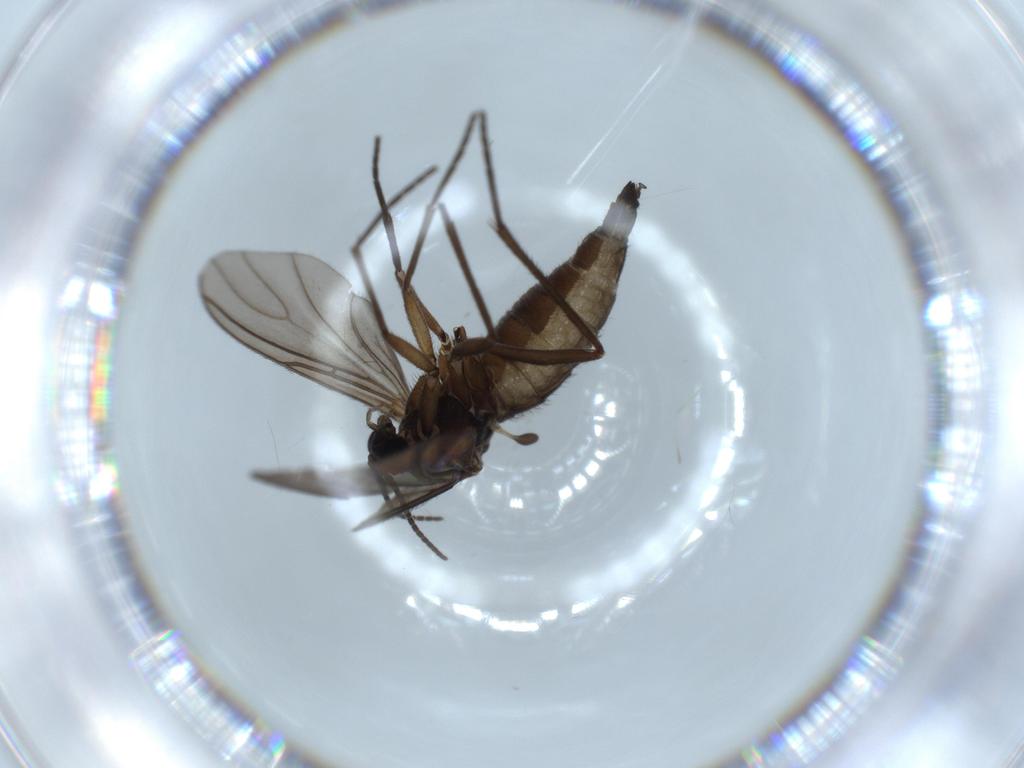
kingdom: Animalia
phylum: Arthropoda
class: Insecta
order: Diptera
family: Sciaridae
